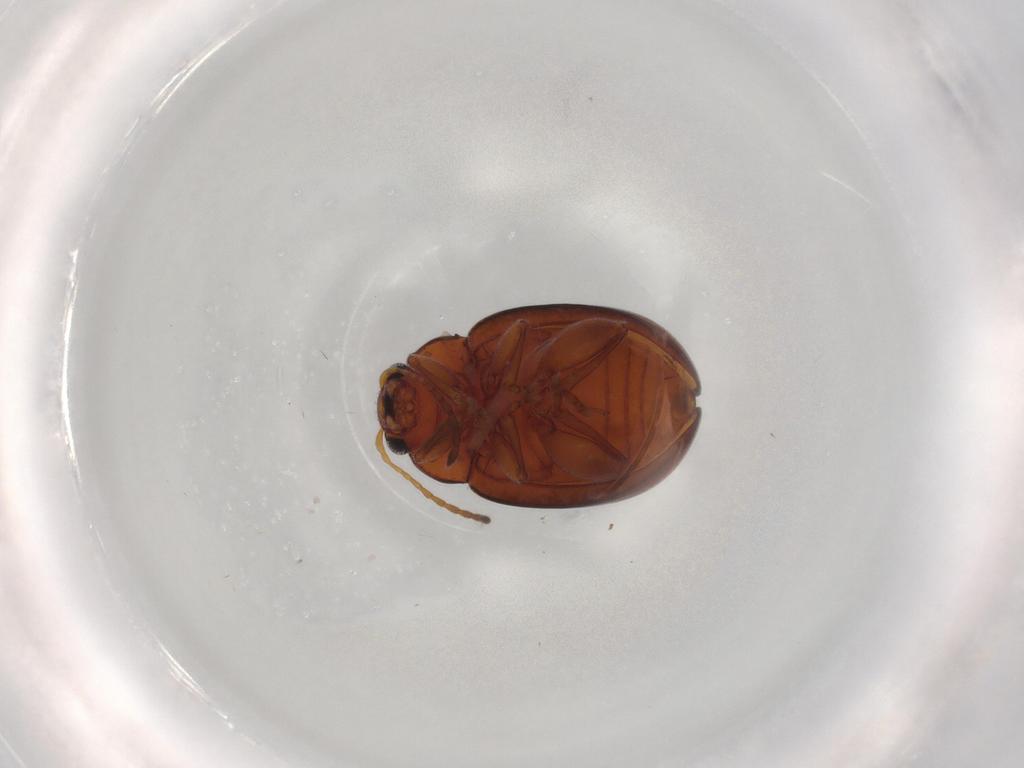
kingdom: Animalia
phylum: Arthropoda
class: Insecta
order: Coleoptera
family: Chrysomelidae
